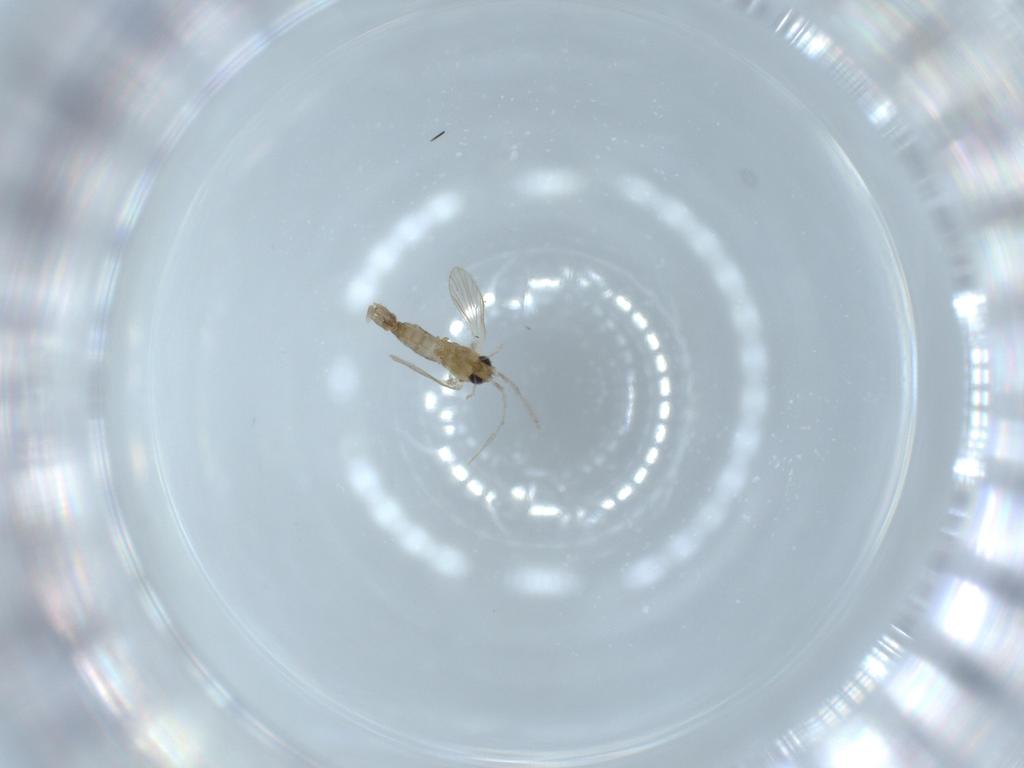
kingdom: Animalia
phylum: Arthropoda
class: Insecta
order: Diptera
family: Psychodidae
